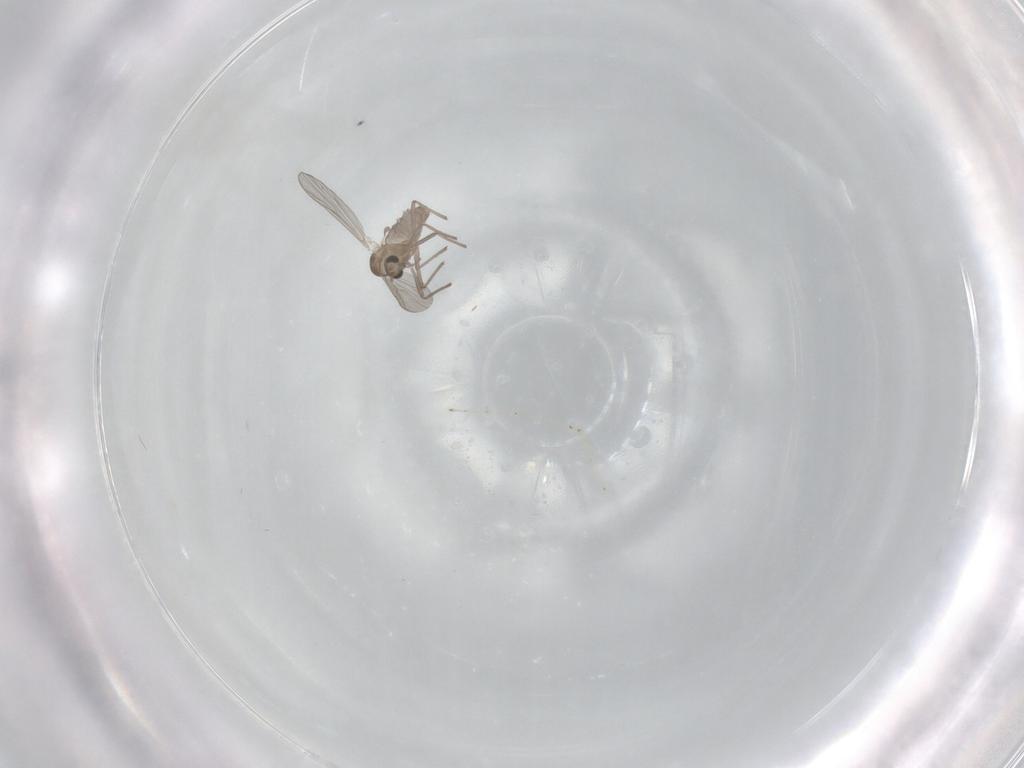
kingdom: Animalia
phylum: Arthropoda
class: Insecta
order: Diptera
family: Chironomidae
